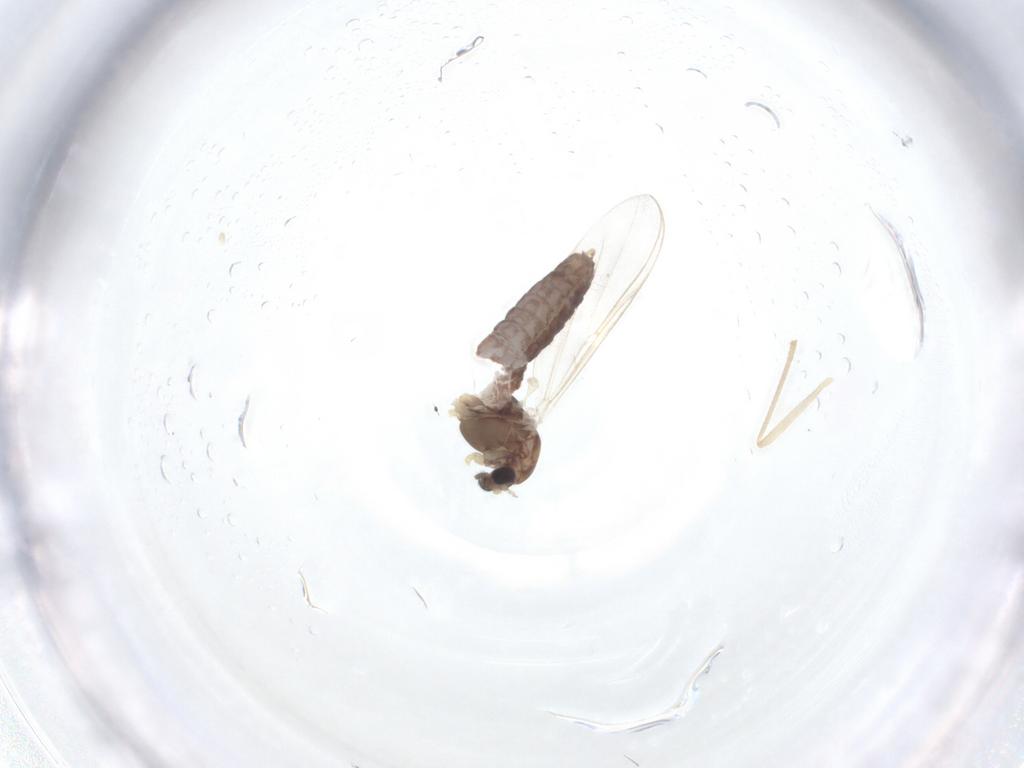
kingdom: Animalia
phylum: Arthropoda
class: Insecta
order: Diptera
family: Chironomidae
